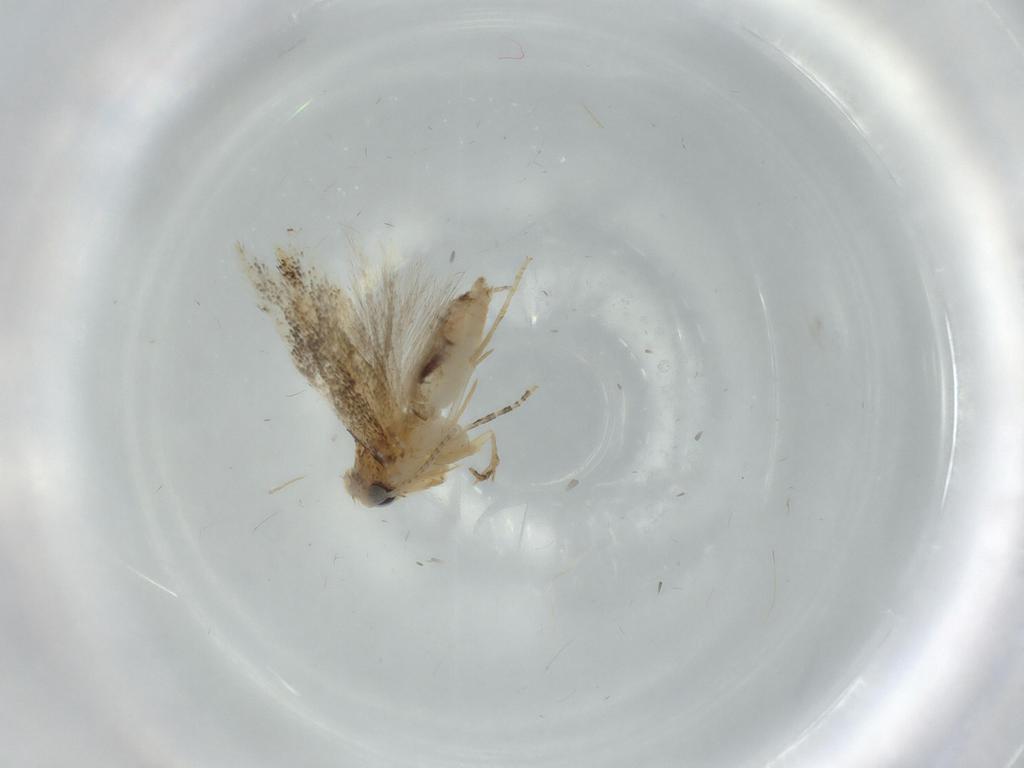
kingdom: Animalia
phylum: Arthropoda
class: Insecta
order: Lepidoptera
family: Bucculatricidae
